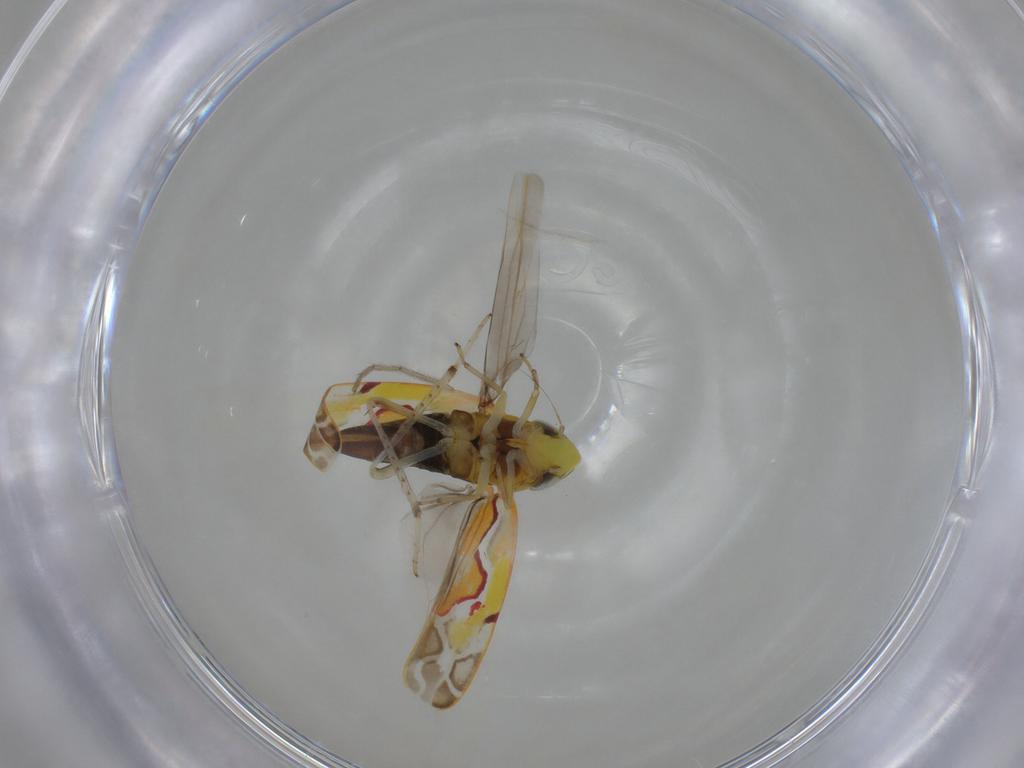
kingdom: Animalia
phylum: Arthropoda
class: Insecta
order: Hemiptera
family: Cicadellidae
